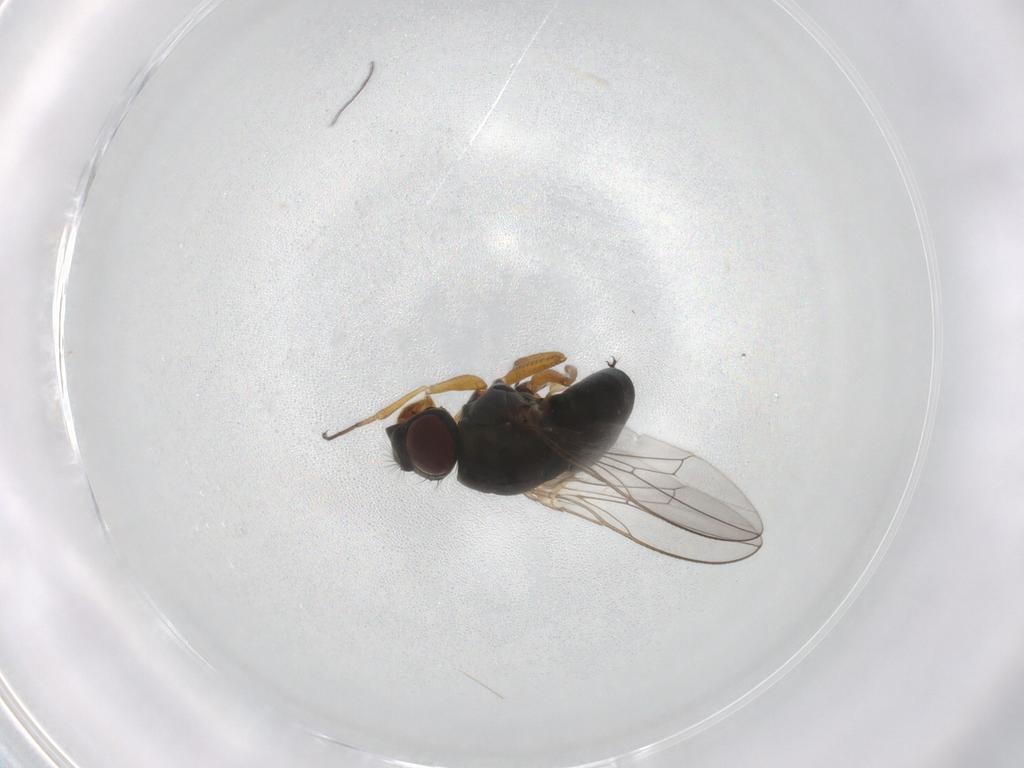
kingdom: Animalia
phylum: Arthropoda
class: Insecta
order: Diptera
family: Ephydridae
